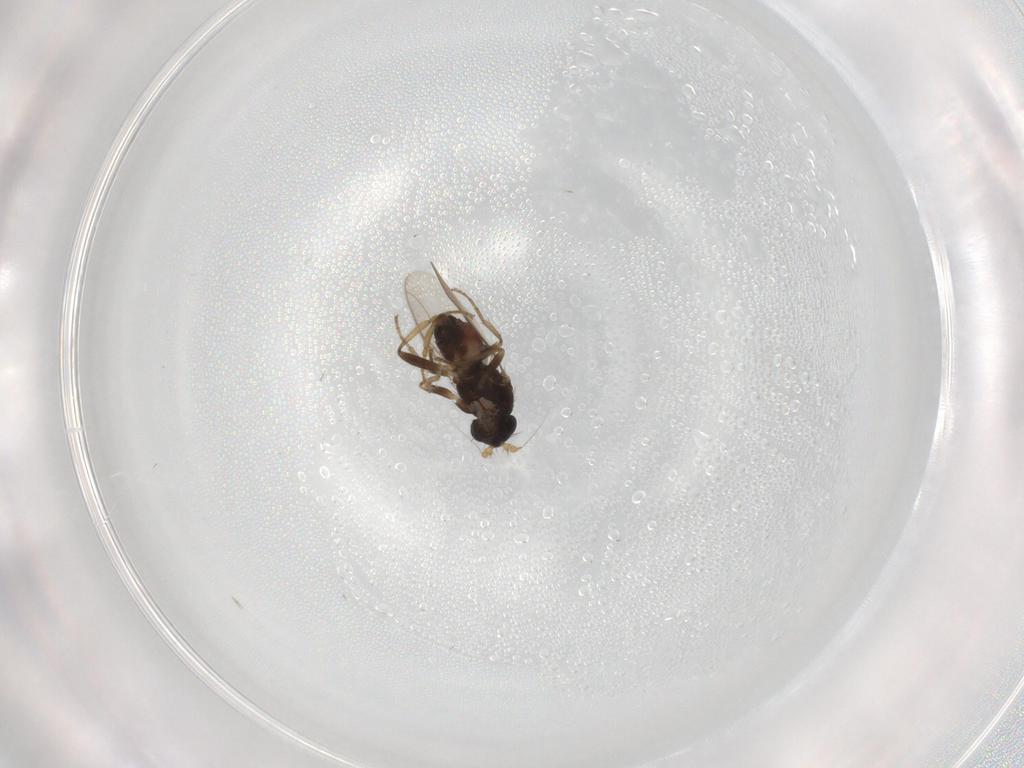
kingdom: Animalia
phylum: Arthropoda
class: Insecta
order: Diptera
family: Sphaeroceridae
